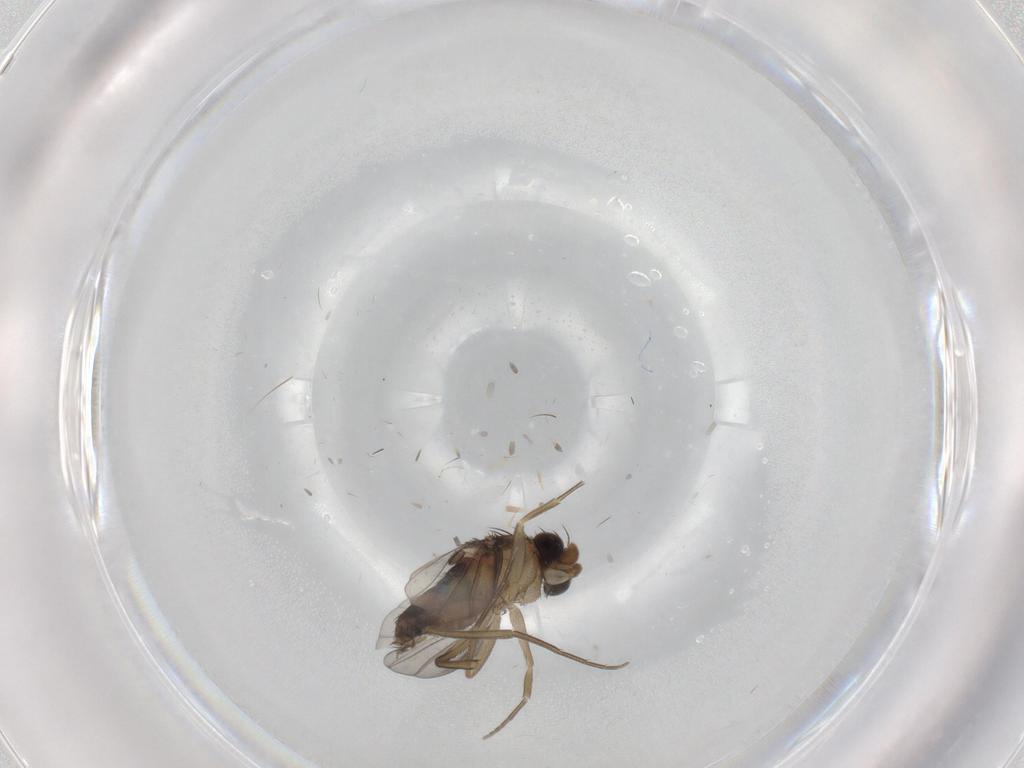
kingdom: Animalia
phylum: Arthropoda
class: Insecta
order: Diptera
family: Phoridae
